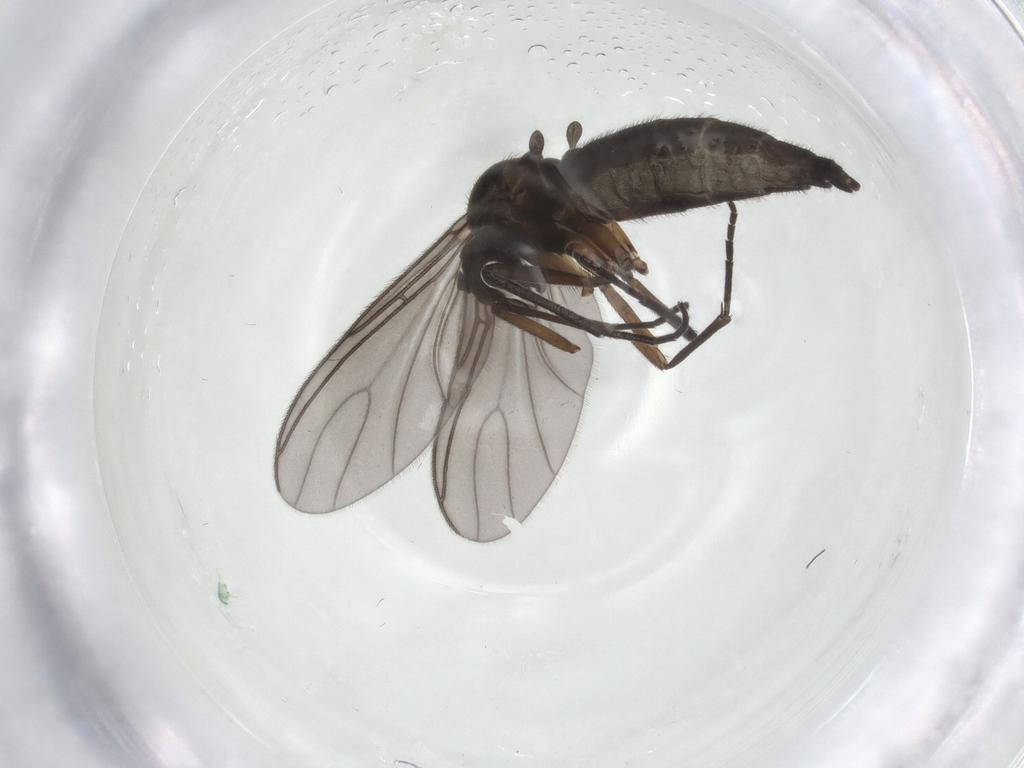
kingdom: Animalia
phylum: Arthropoda
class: Insecta
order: Diptera
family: Sciaridae
